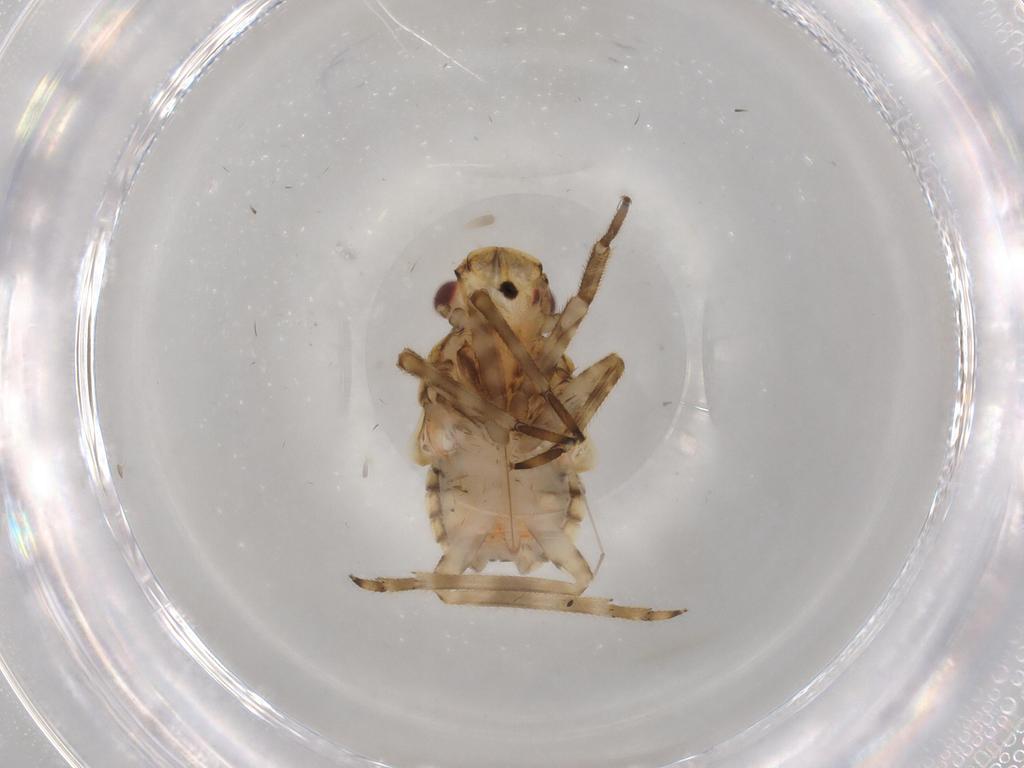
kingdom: Animalia
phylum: Arthropoda
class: Insecta
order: Hemiptera
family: Fulgoridae
